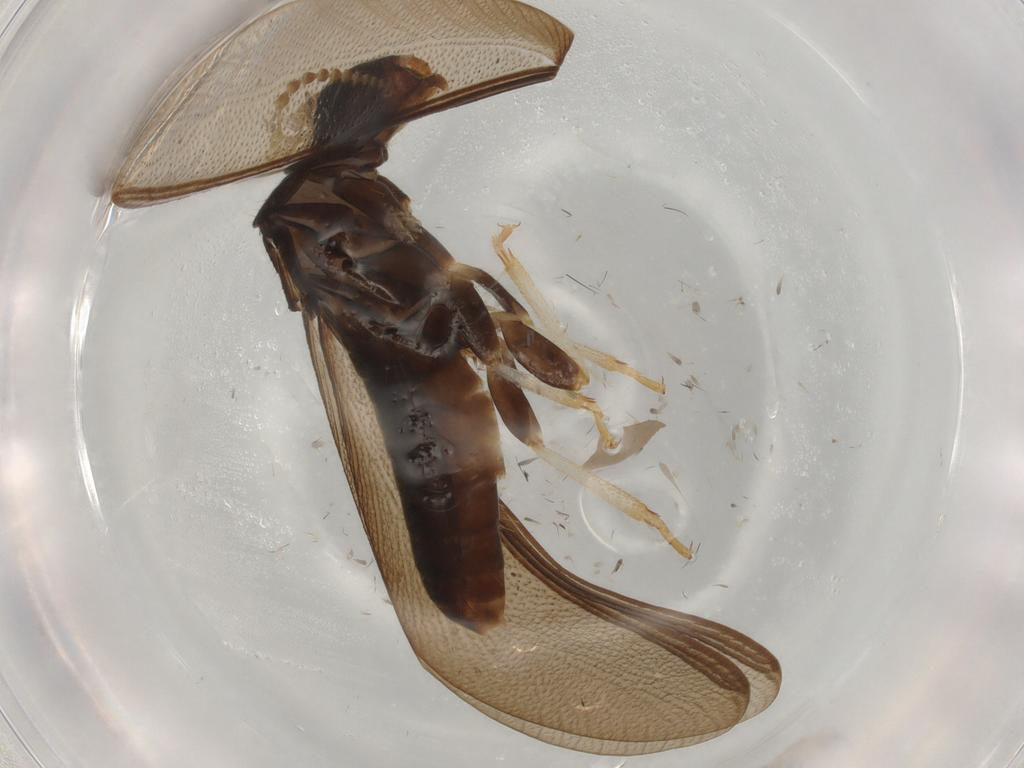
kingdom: Animalia
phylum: Arthropoda
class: Insecta
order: Blattodea
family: Kalotermitidae
